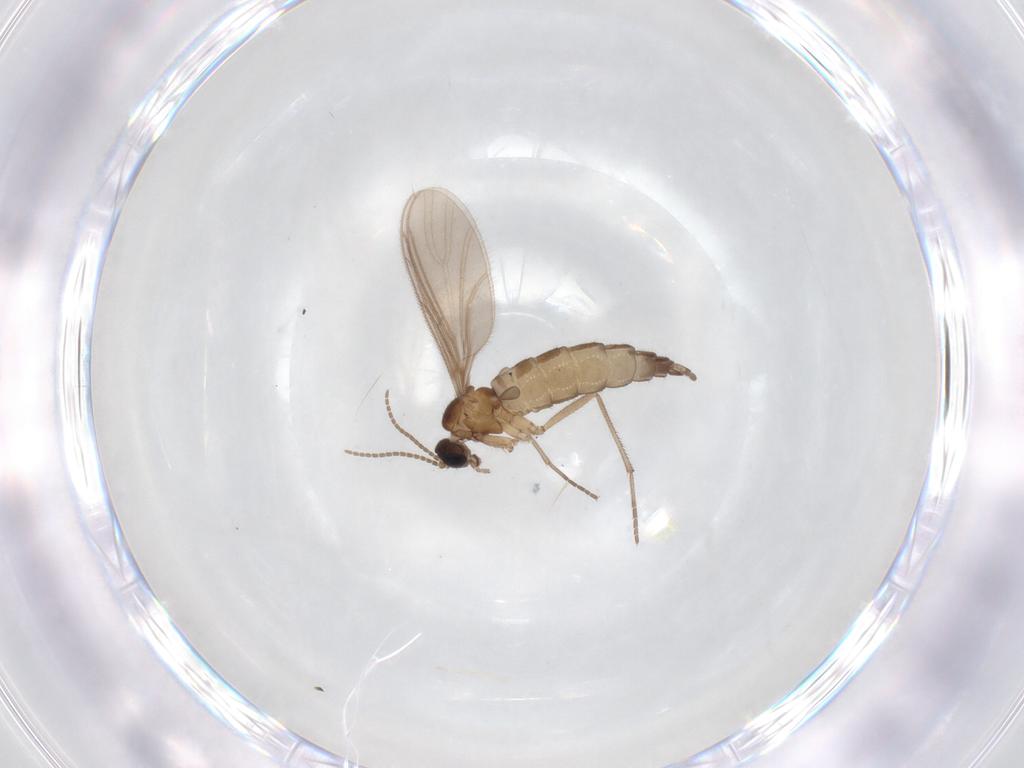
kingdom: Animalia
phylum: Arthropoda
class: Insecta
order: Diptera
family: Sciaridae
